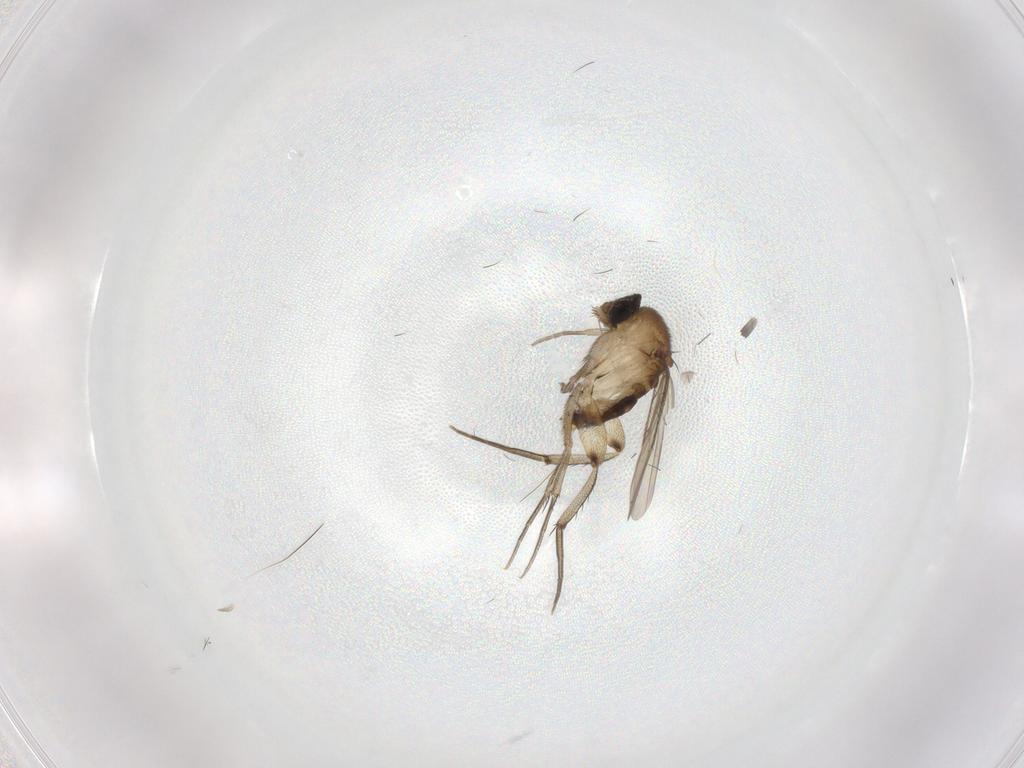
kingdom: Animalia
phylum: Arthropoda
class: Insecta
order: Diptera
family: Phoridae
